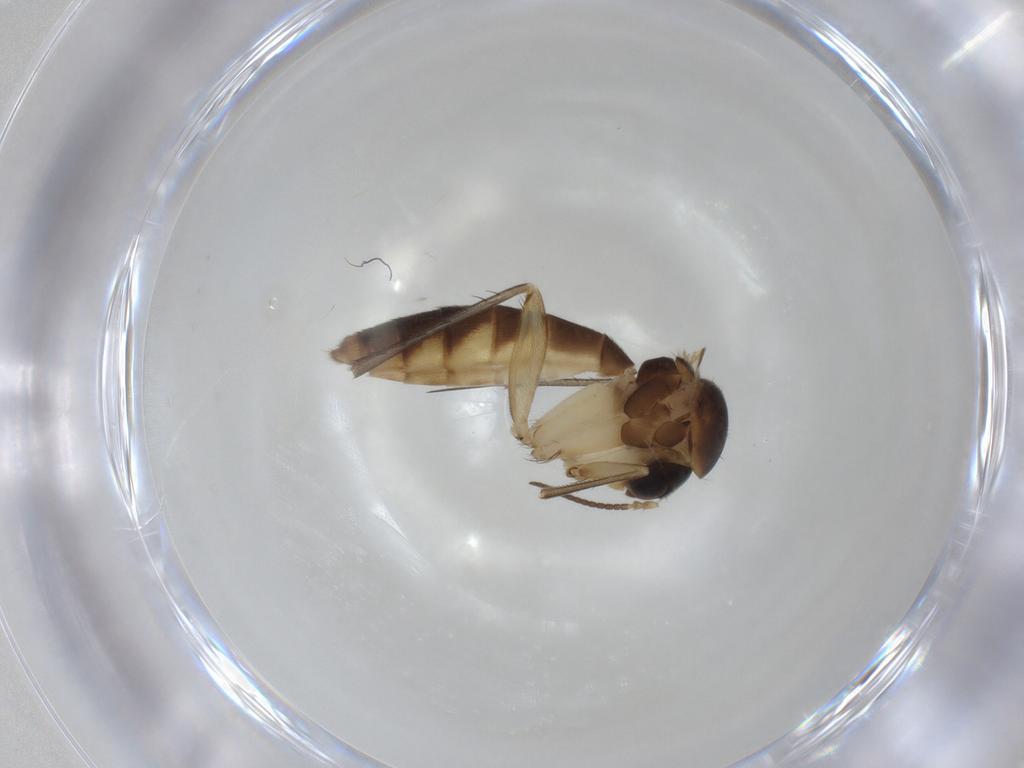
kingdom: Animalia
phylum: Arthropoda
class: Insecta
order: Diptera
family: Mycetophilidae
